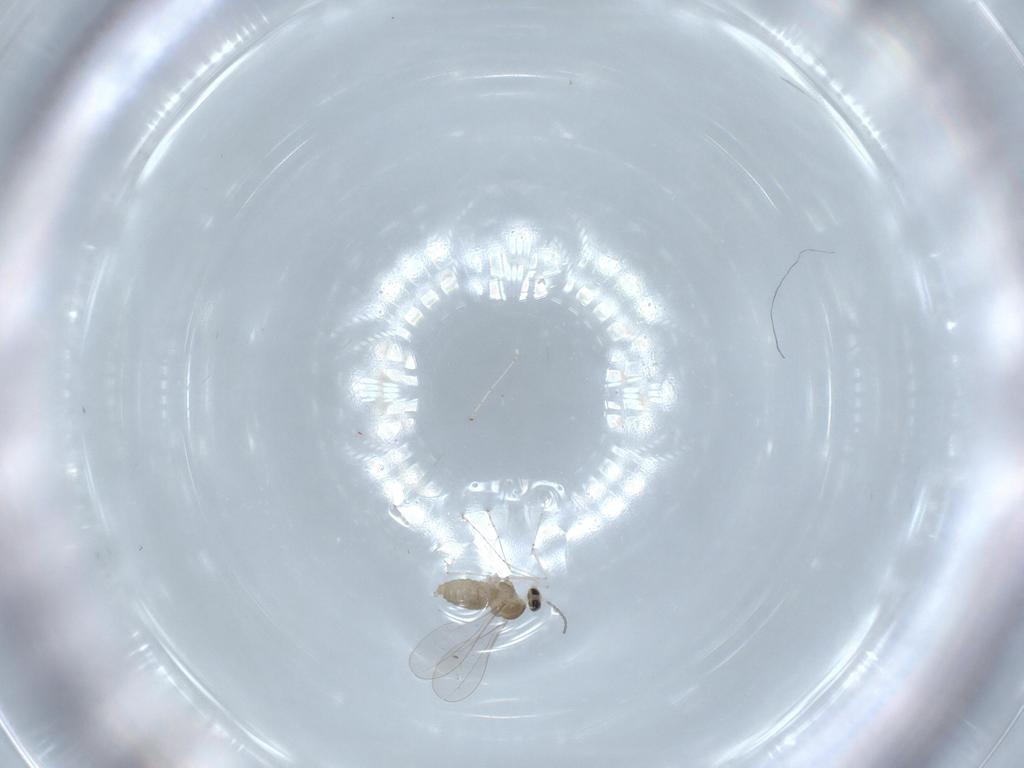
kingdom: Animalia
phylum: Arthropoda
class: Insecta
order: Diptera
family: Cecidomyiidae
